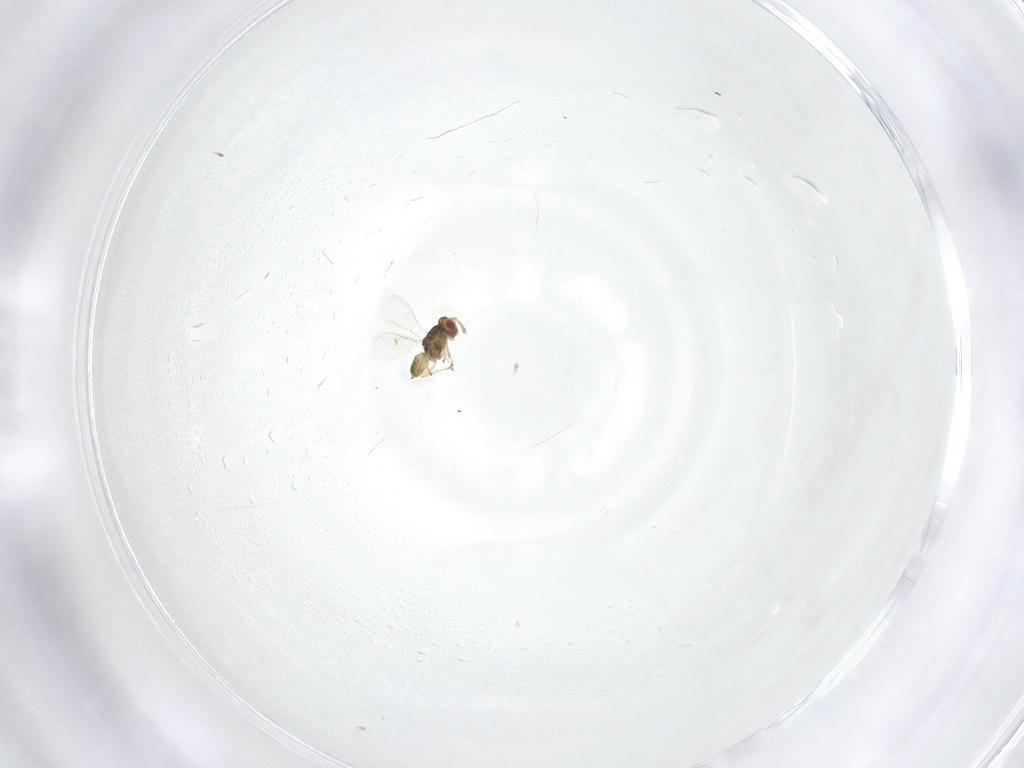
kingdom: Animalia
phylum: Arthropoda
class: Insecta
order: Hymenoptera
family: Eulophidae
